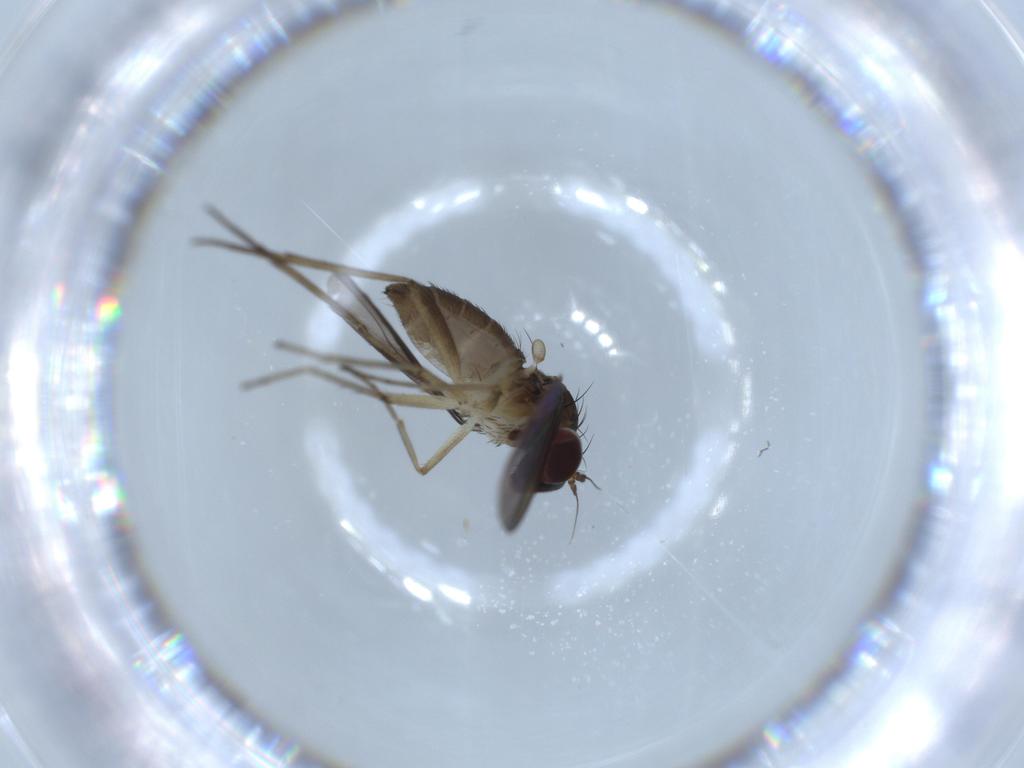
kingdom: Animalia
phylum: Arthropoda
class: Insecta
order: Diptera
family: Dolichopodidae
